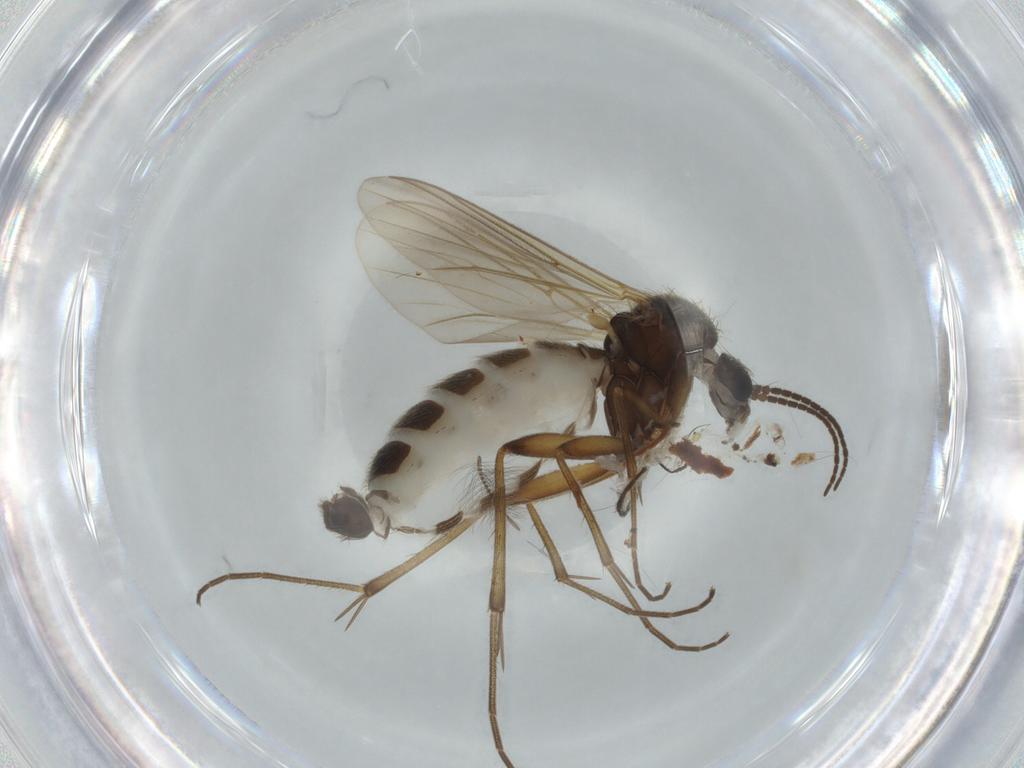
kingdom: Animalia
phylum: Arthropoda
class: Insecta
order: Diptera
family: Mycetophilidae
